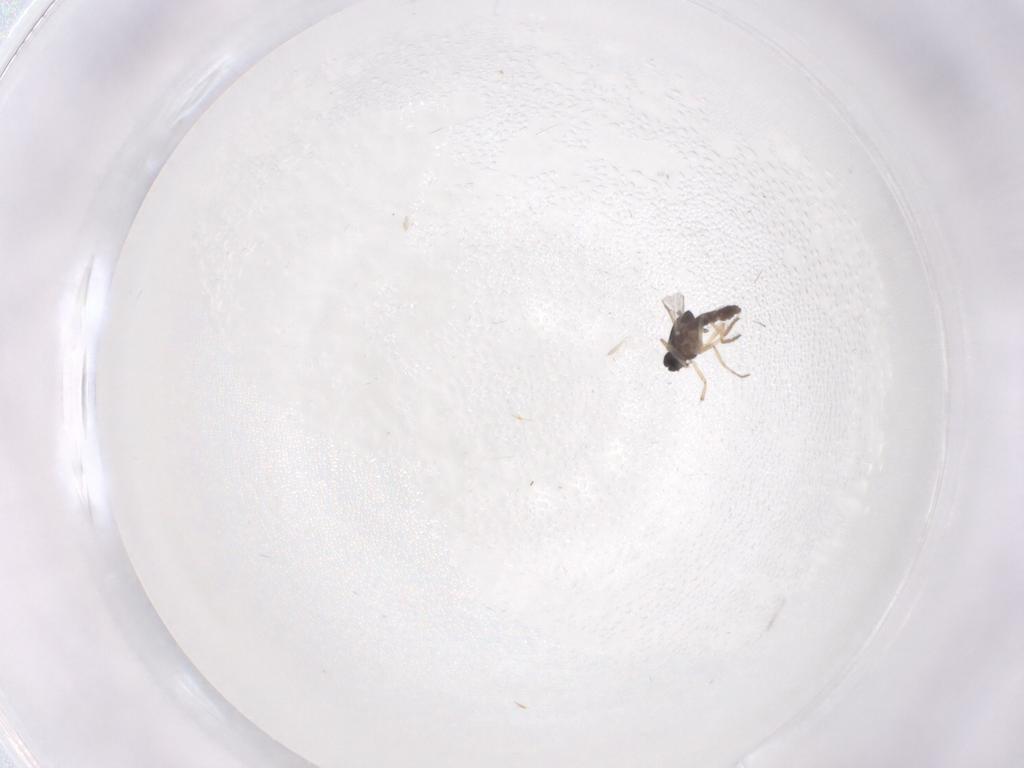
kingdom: Animalia
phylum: Arthropoda
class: Insecta
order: Diptera
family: Ceratopogonidae
